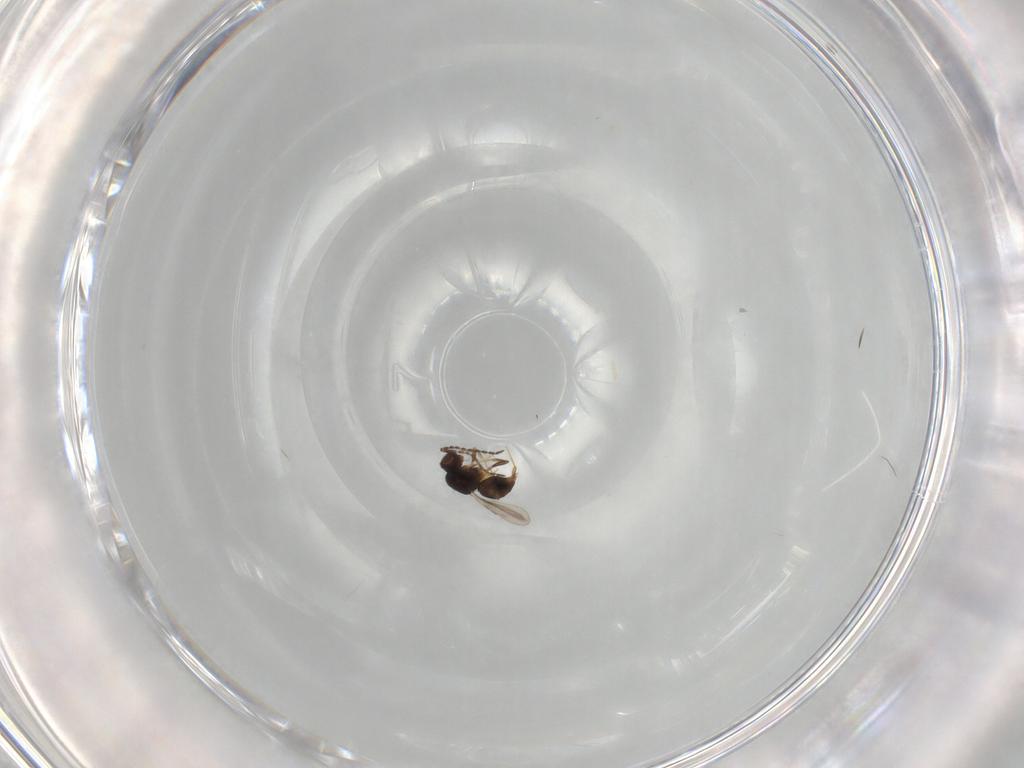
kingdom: Animalia
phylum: Arthropoda
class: Insecta
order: Hymenoptera
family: Ceraphronidae
